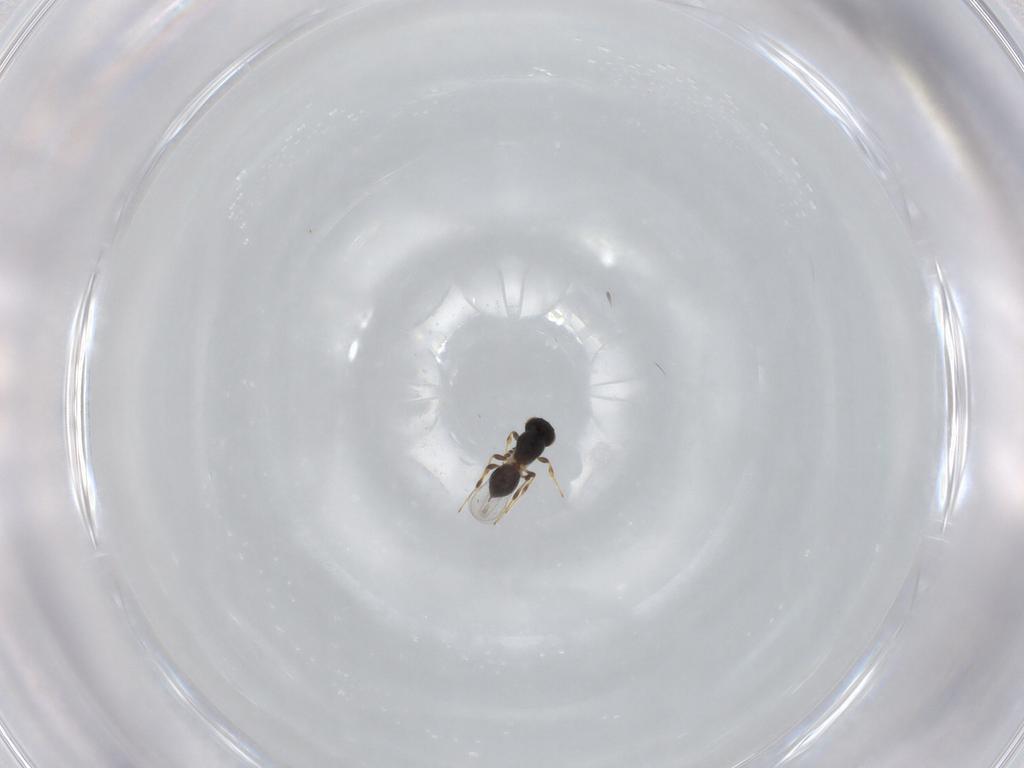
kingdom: Animalia
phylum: Arthropoda
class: Insecta
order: Hymenoptera
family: Platygastridae
